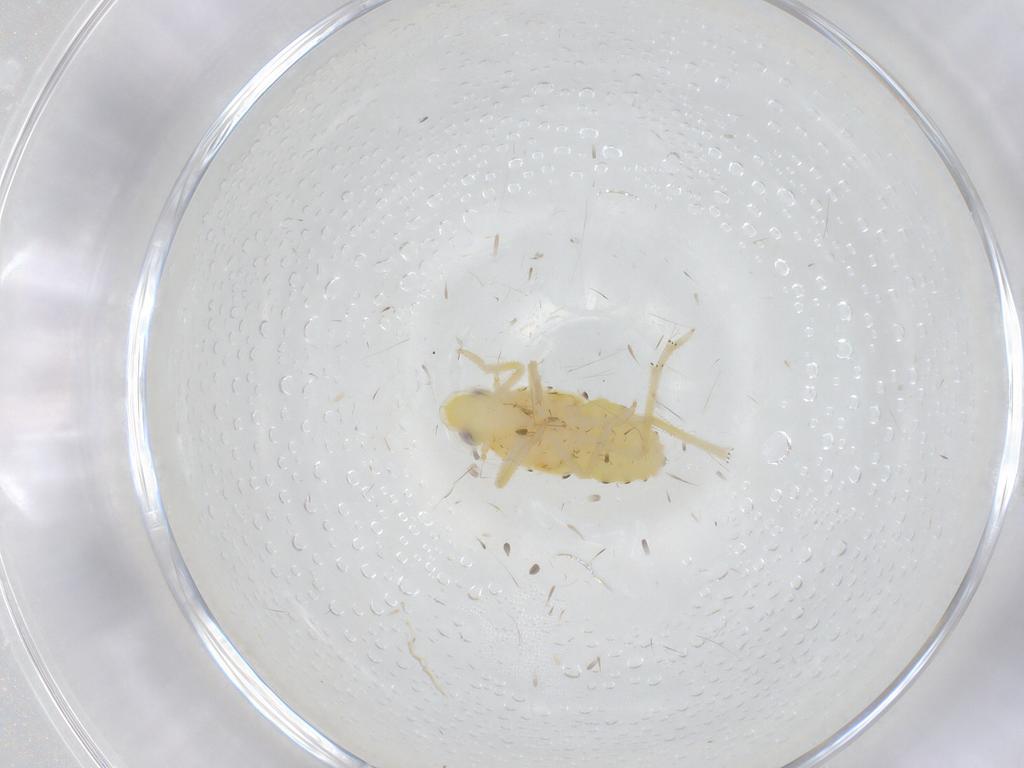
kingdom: Animalia
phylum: Arthropoda
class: Insecta
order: Hemiptera
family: Tropiduchidae
